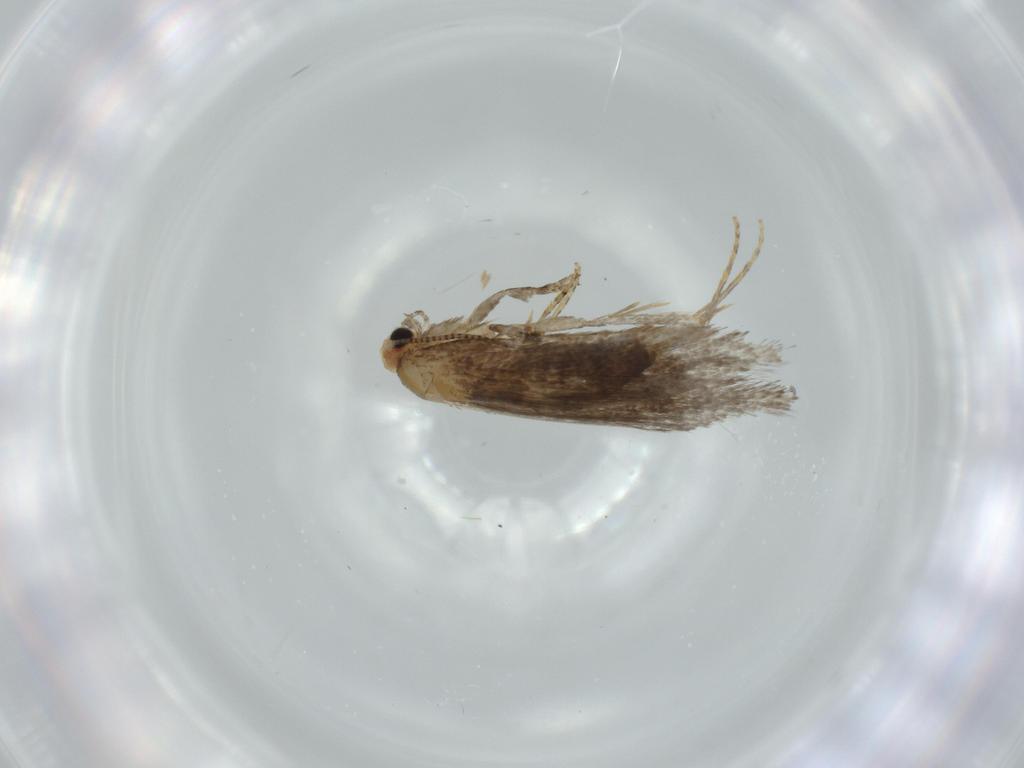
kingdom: Animalia
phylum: Arthropoda
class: Insecta
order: Lepidoptera
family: Tineidae
